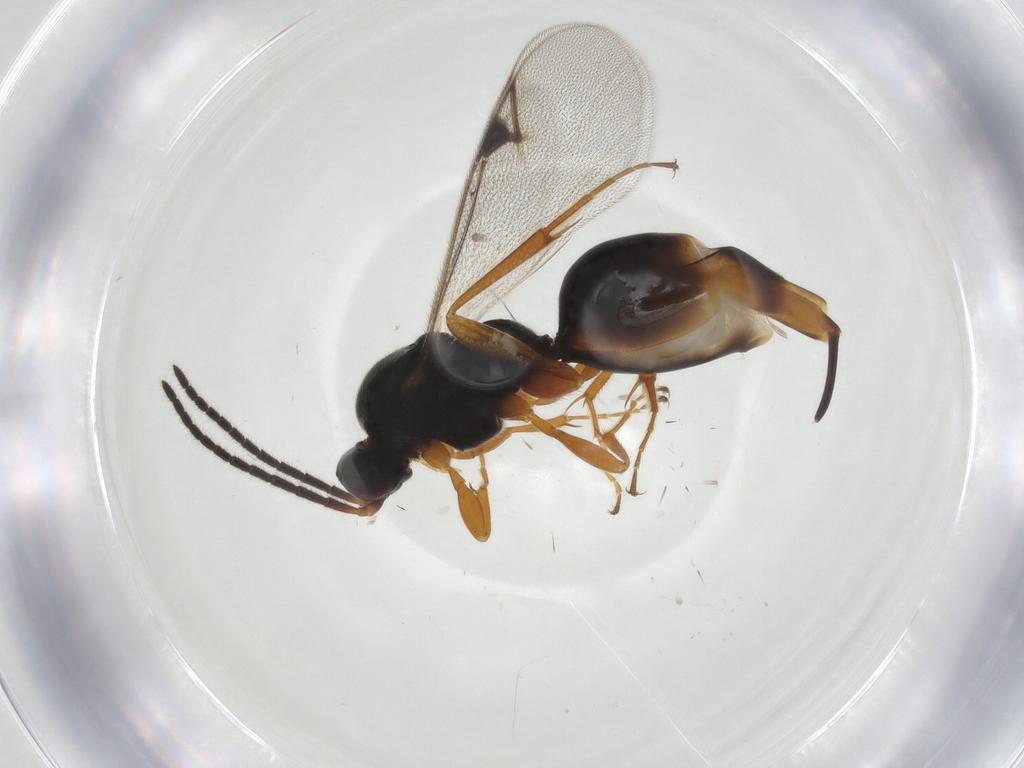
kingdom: Animalia
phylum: Arthropoda
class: Insecta
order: Hymenoptera
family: Proctotrupidae
